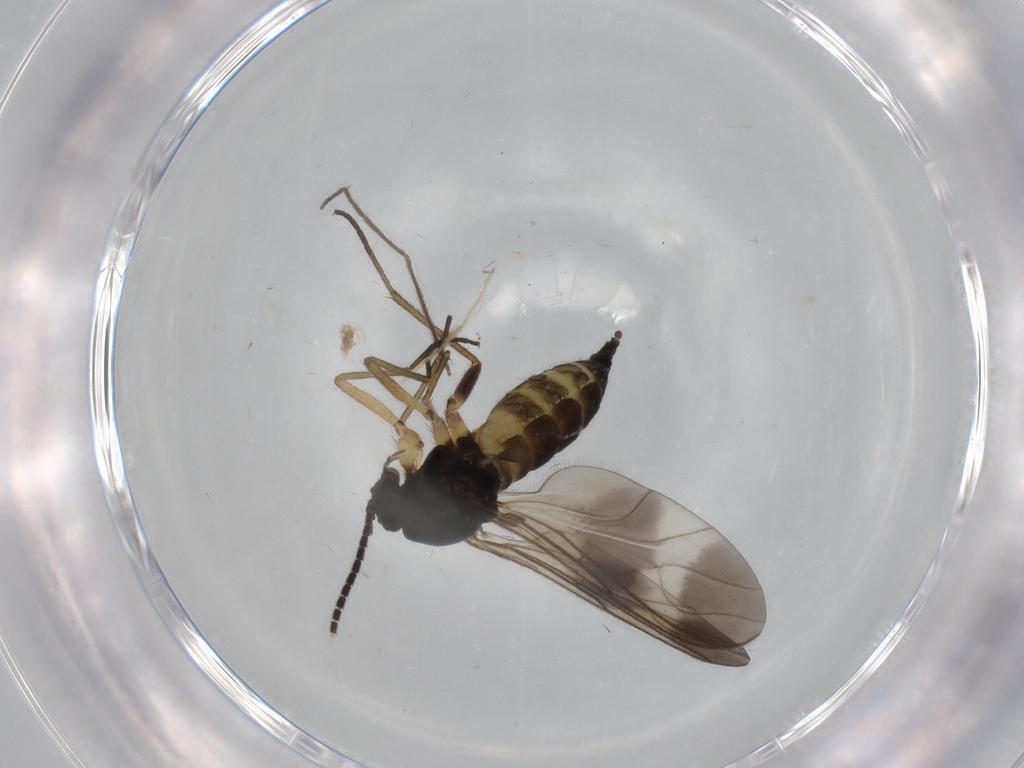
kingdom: Animalia
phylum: Arthropoda
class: Insecta
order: Diptera
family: Sciaridae
